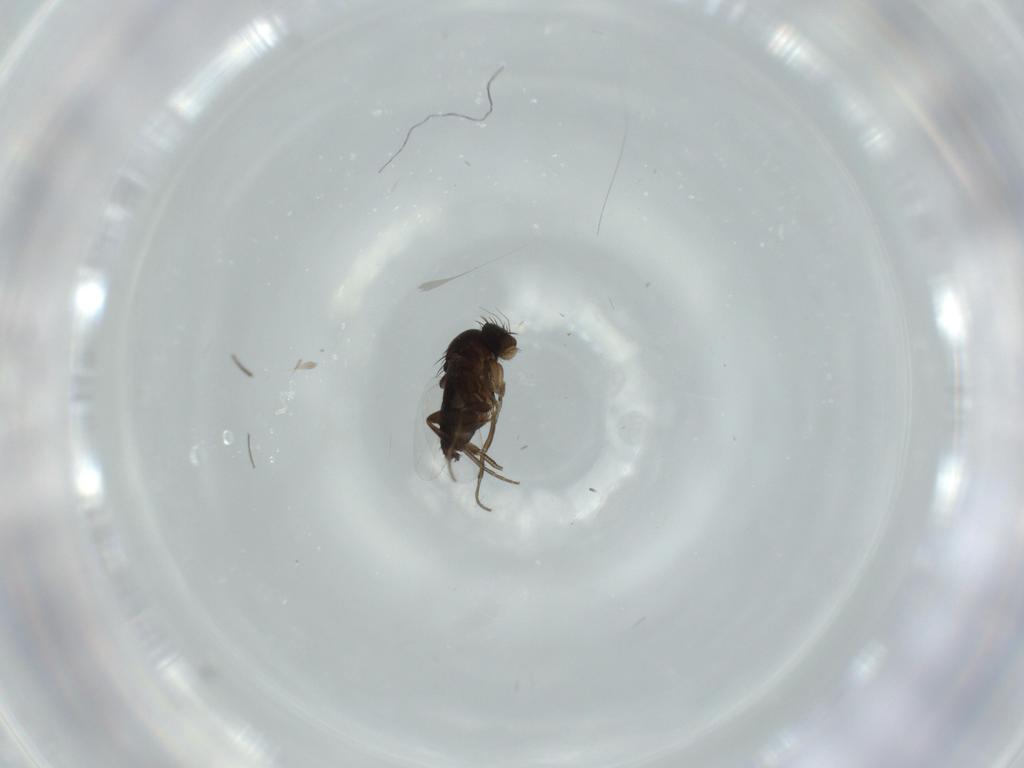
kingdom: Animalia
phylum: Arthropoda
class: Insecta
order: Diptera
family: Phoridae
